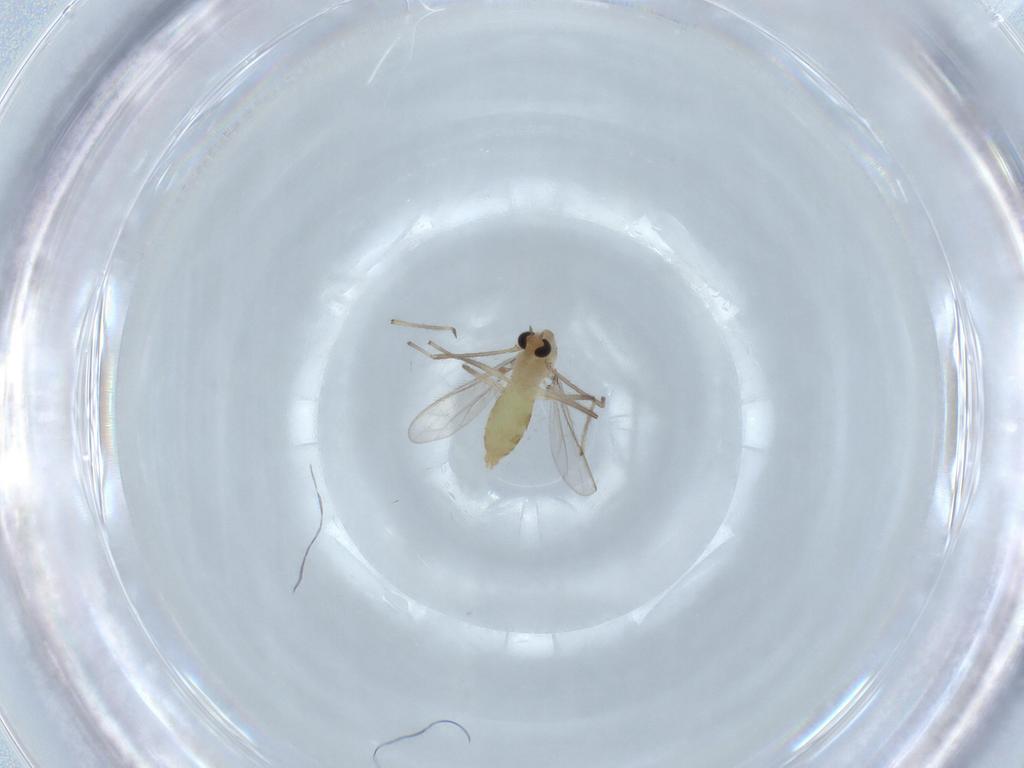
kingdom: Animalia
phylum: Arthropoda
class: Insecta
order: Diptera
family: Chironomidae
